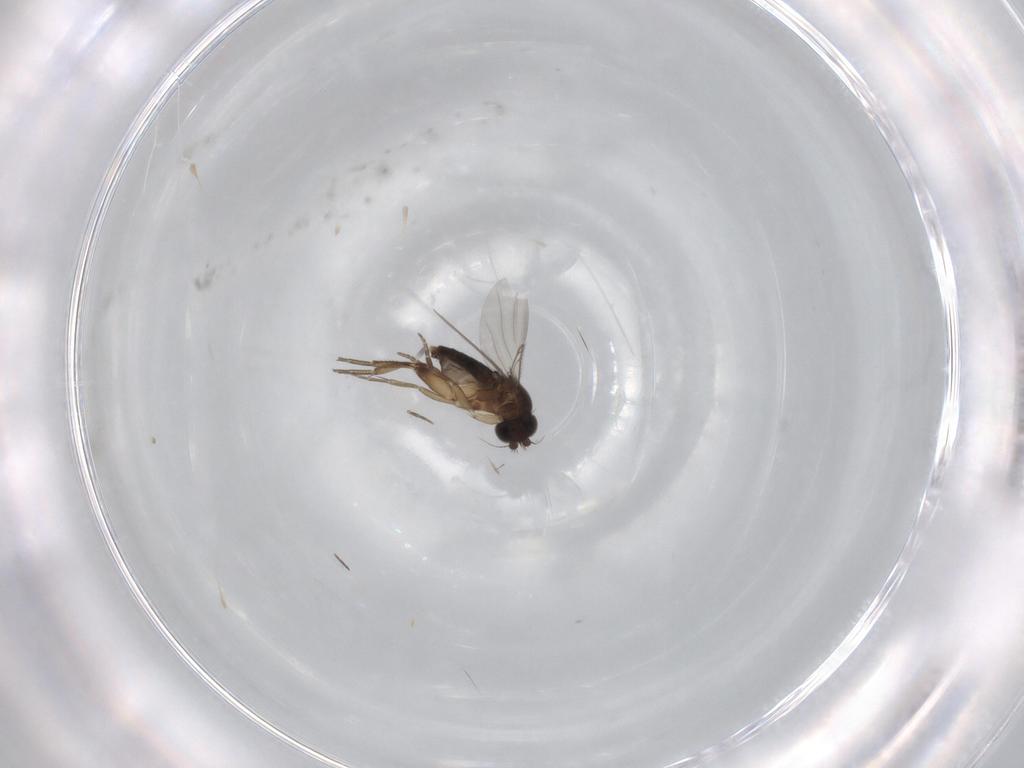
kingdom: Animalia
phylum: Arthropoda
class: Insecta
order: Diptera
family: Phoridae
